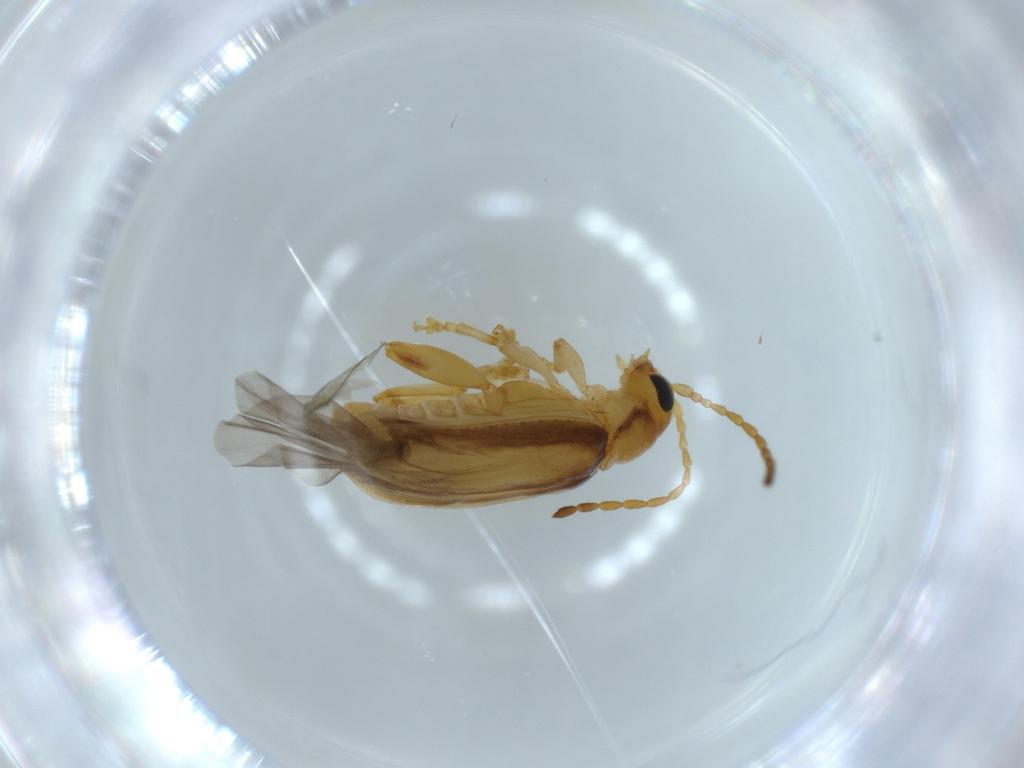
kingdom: Animalia
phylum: Arthropoda
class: Insecta
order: Coleoptera
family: Chrysomelidae
